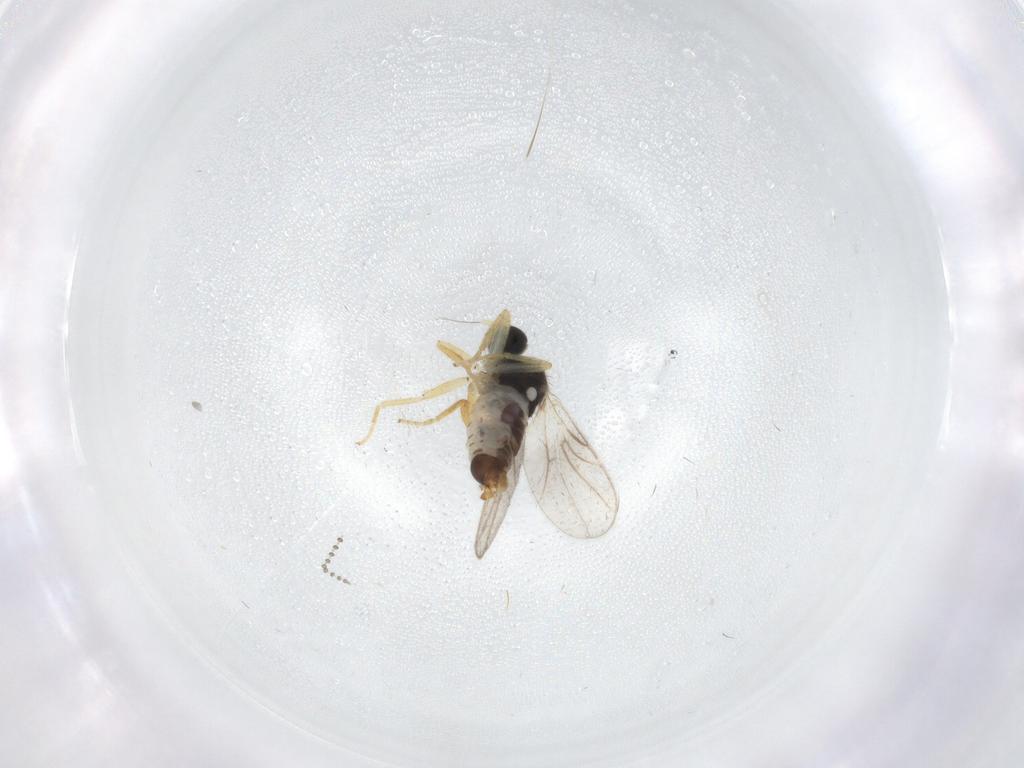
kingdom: Animalia
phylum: Arthropoda
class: Insecta
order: Diptera
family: Hybotidae
